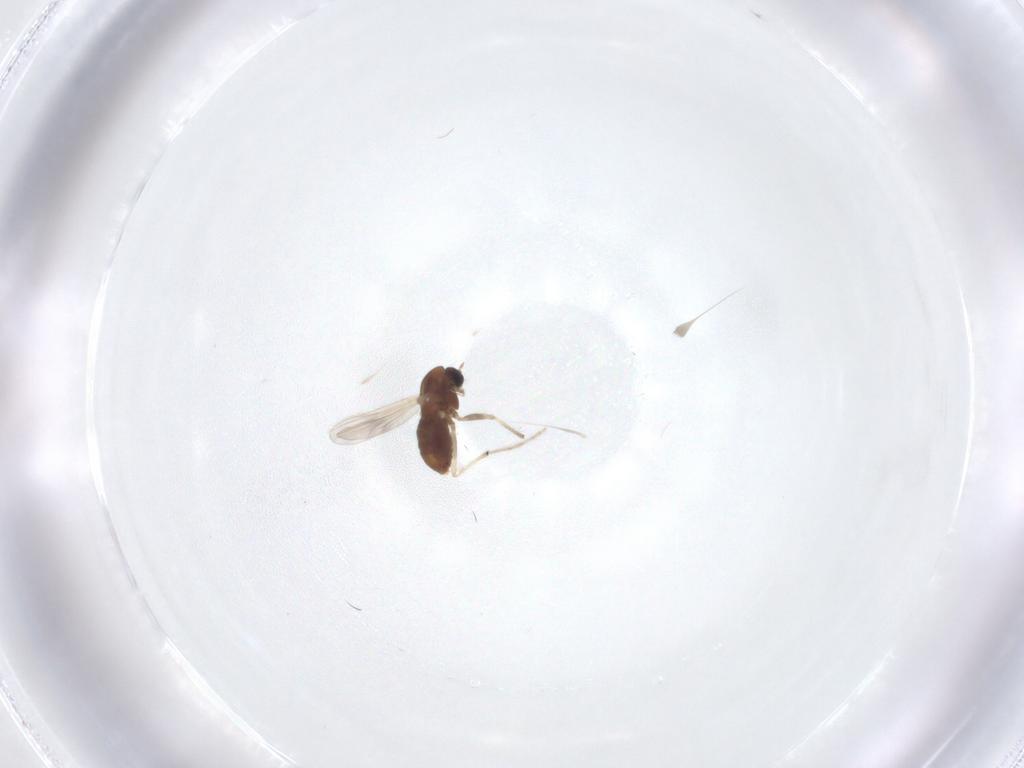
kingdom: Animalia
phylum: Arthropoda
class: Insecta
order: Diptera
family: Chironomidae
